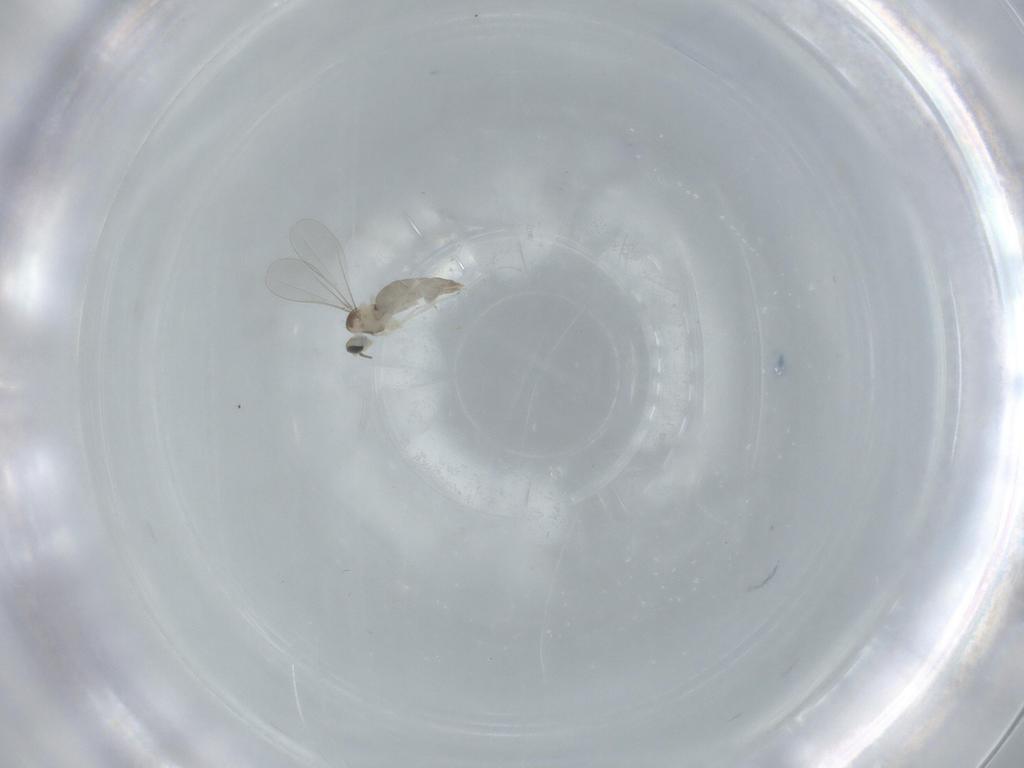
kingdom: Animalia
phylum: Arthropoda
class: Insecta
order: Diptera
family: Cecidomyiidae
